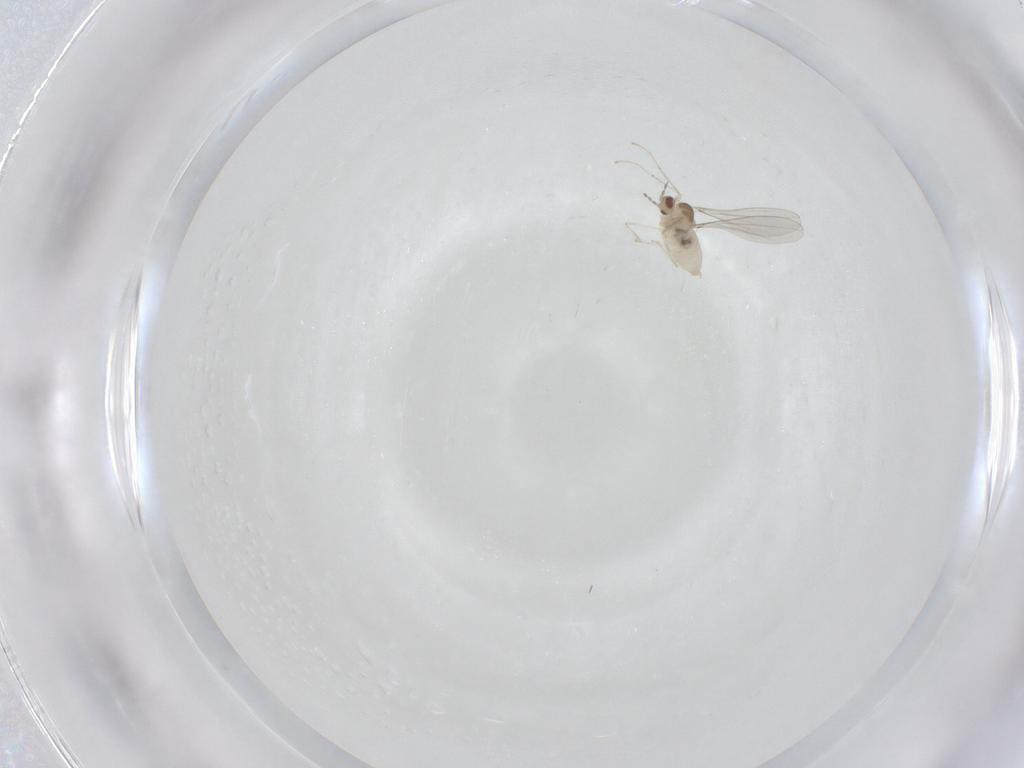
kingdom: Animalia
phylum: Arthropoda
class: Insecta
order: Diptera
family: Cecidomyiidae
